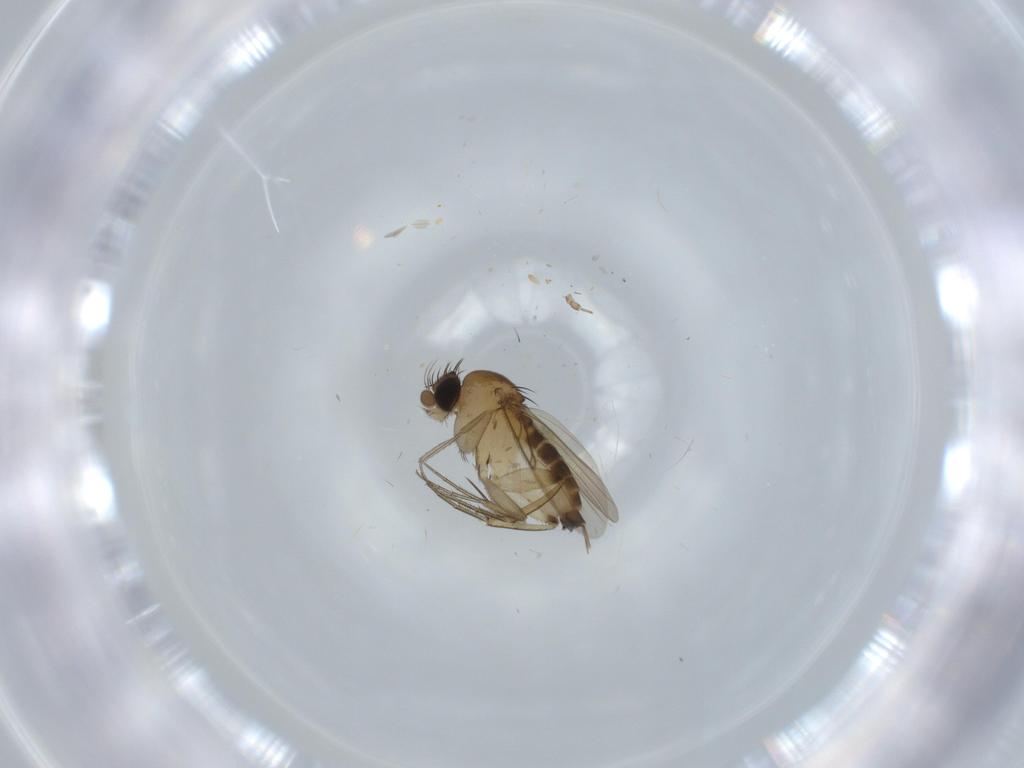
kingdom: Animalia
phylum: Arthropoda
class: Insecta
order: Diptera
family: Phoridae
